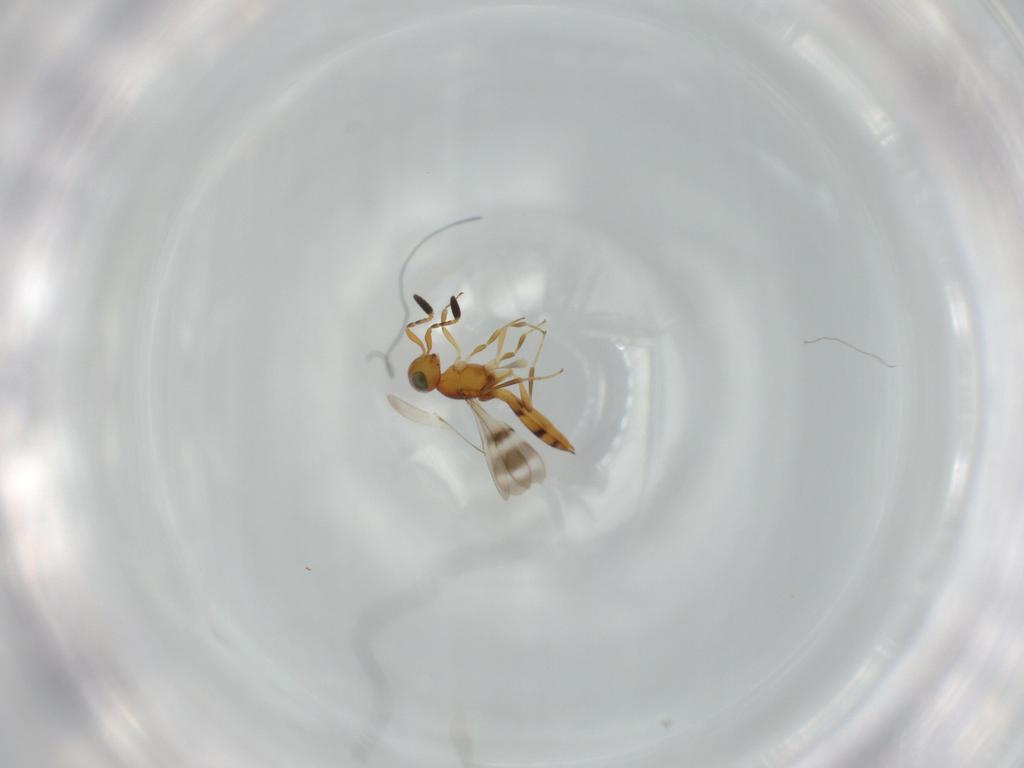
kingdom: Animalia
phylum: Arthropoda
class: Insecta
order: Hymenoptera
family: Scelionidae
